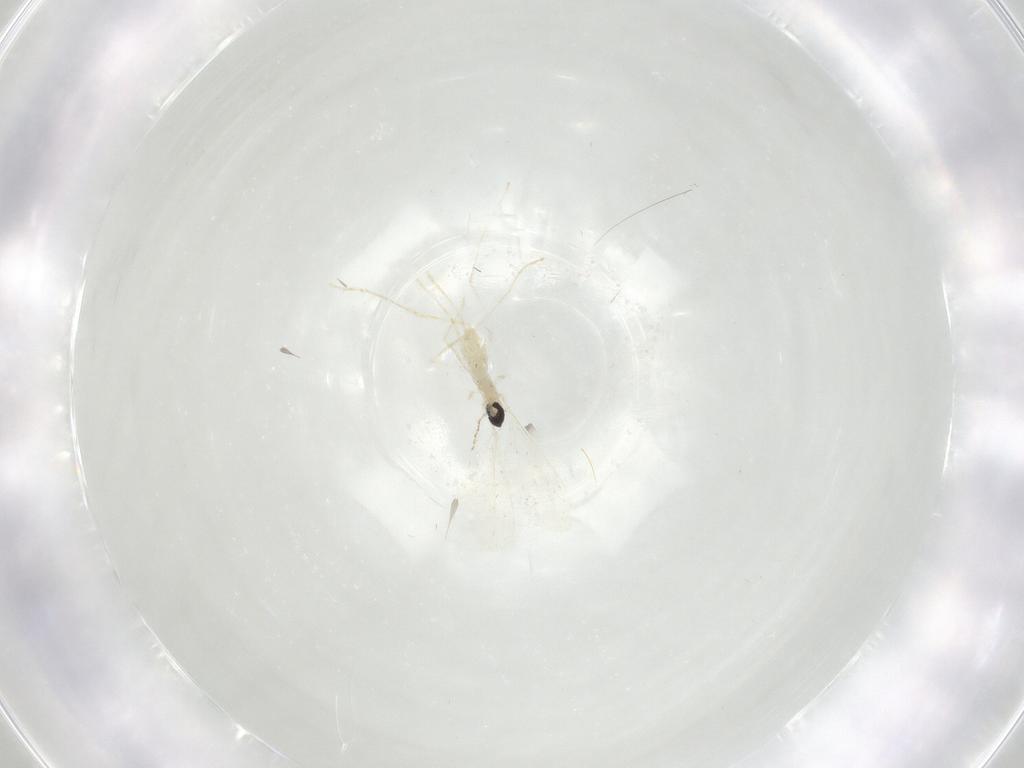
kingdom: Animalia
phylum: Arthropoda
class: Insecta
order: Diptera
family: Cecidomyiidae
